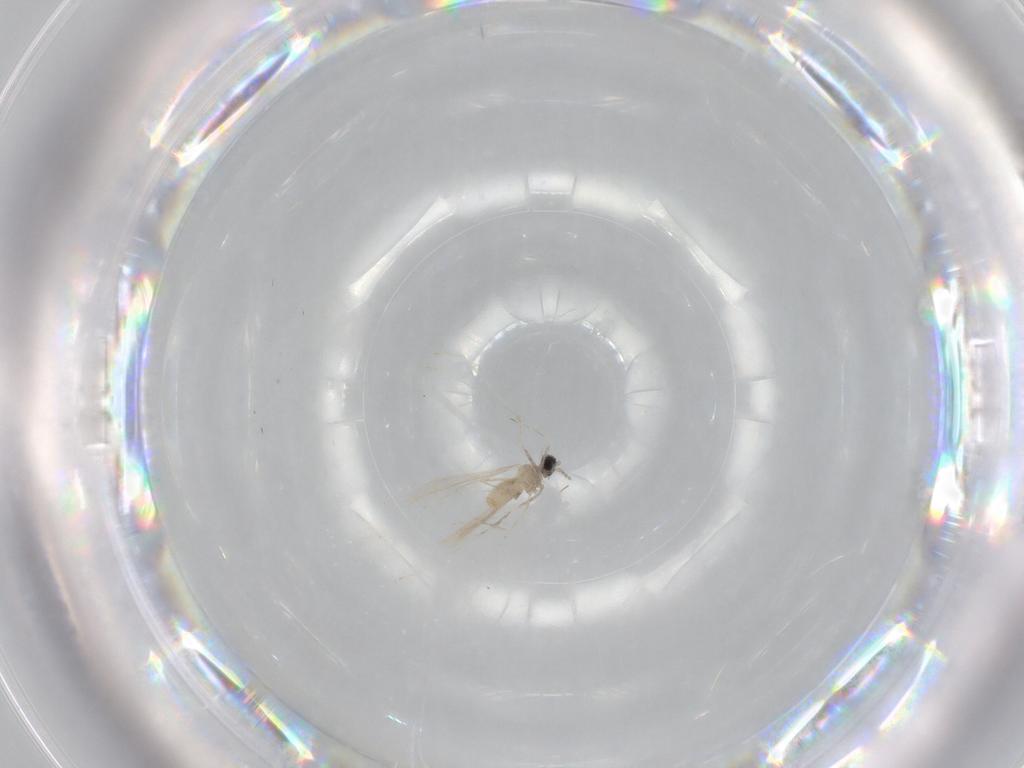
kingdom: Animalia
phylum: Arthropoda
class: Insecta
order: Diptera
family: Cecidomyiidae
